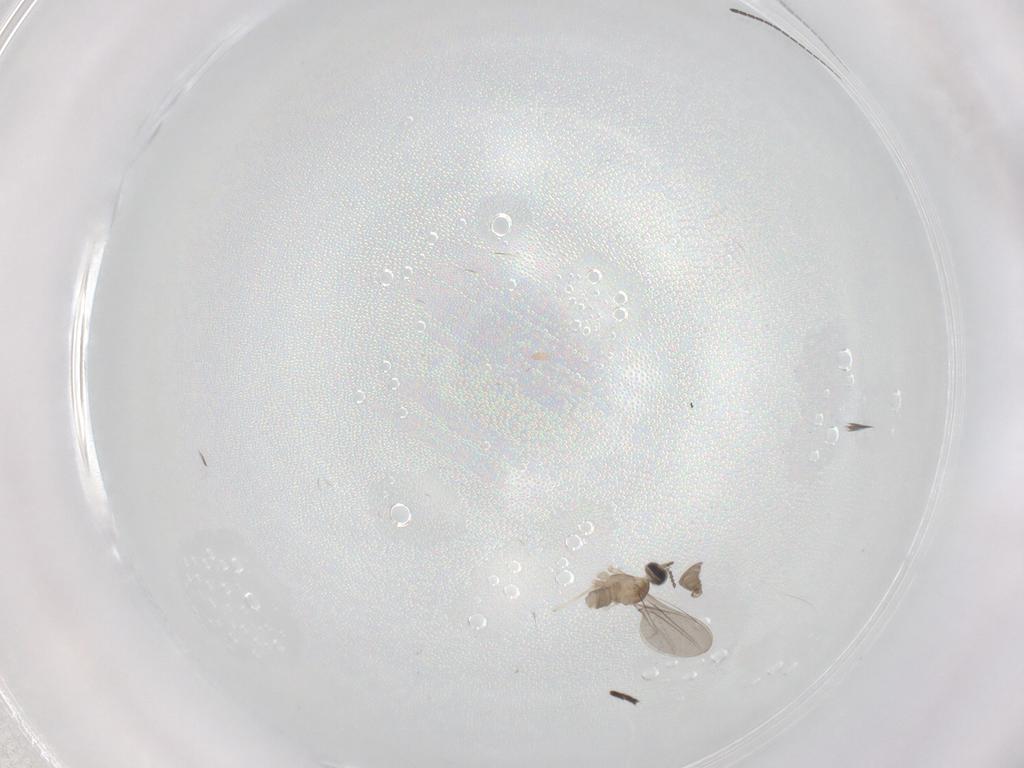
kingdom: Animalia
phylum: Arthropoda
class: Insecta
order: Diptera
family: Cecidomyiidae
